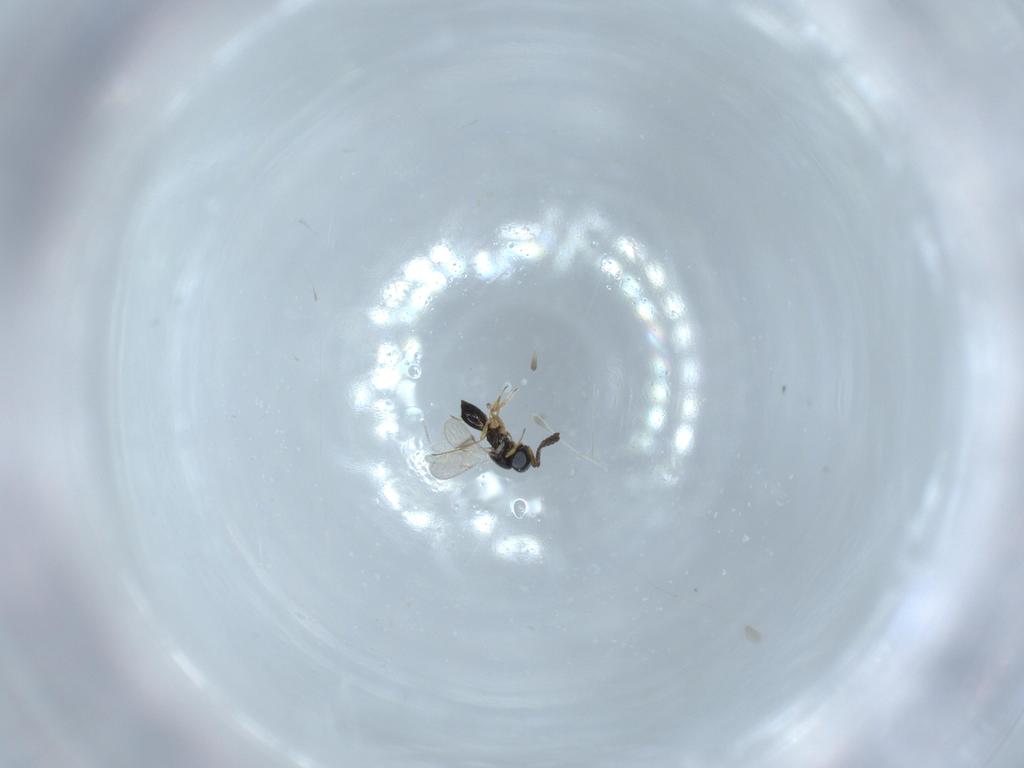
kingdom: Animalia
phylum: Arthropoda
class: Insecta
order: Hymenoptera
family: Scelionidae
